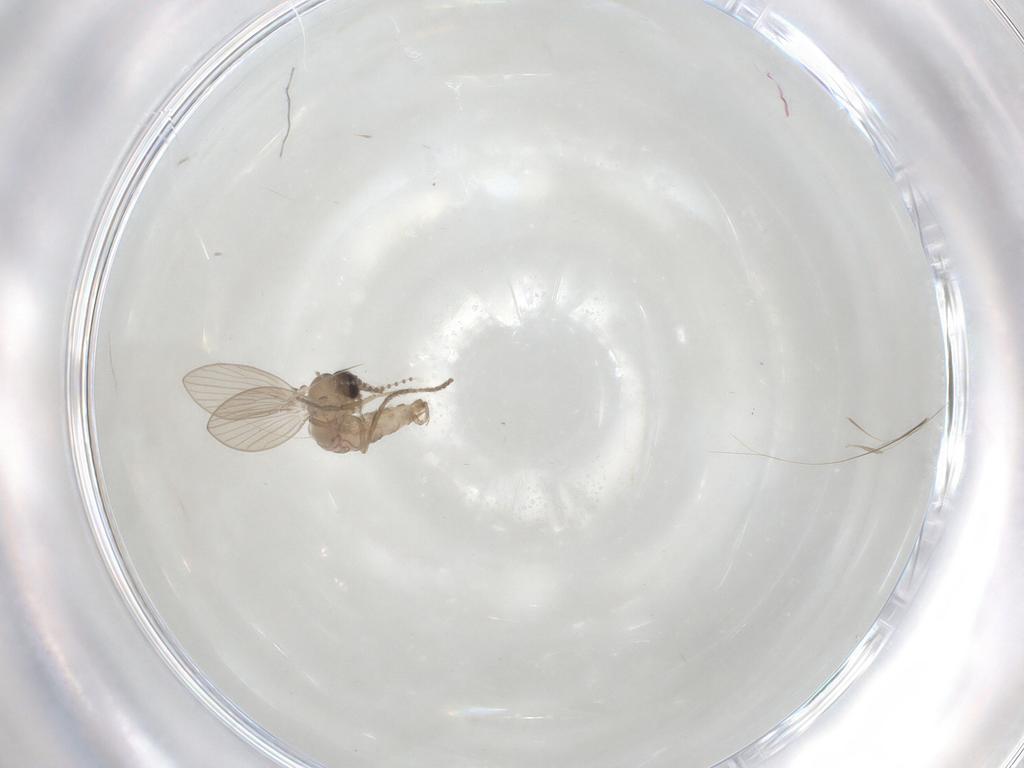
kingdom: Animalia
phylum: Arthropoda
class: Insecta
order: Diptera
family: Psychodidae
